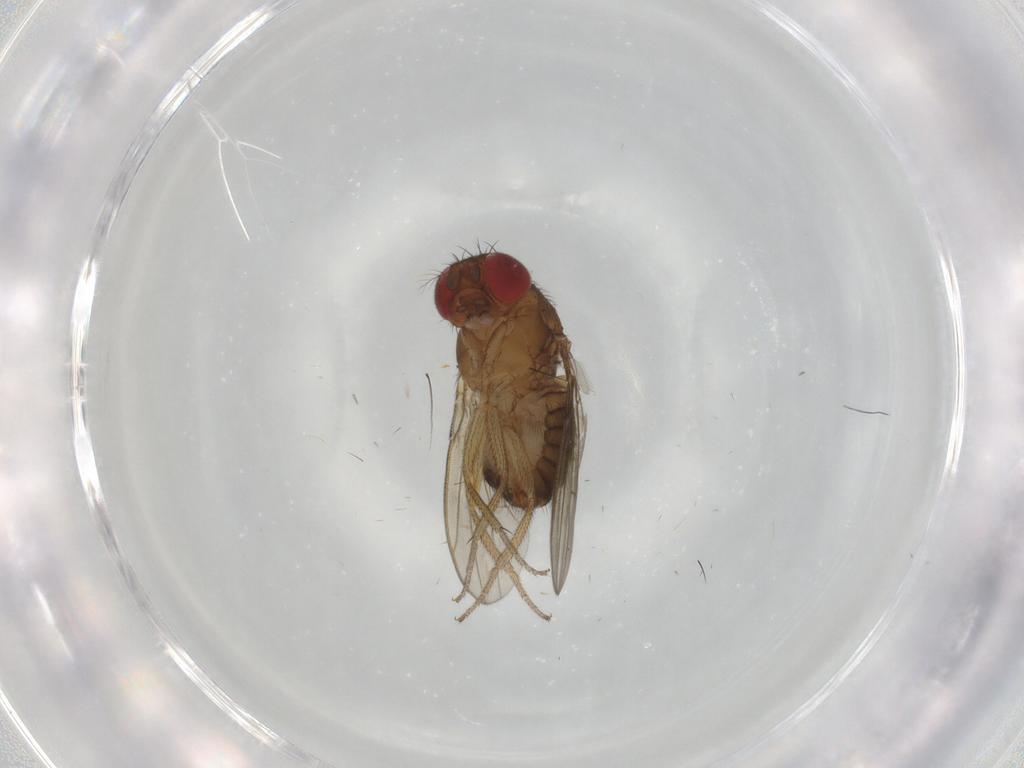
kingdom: Animalia
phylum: Arthropoda
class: Insecta
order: Diptera
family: Drosophilidae
